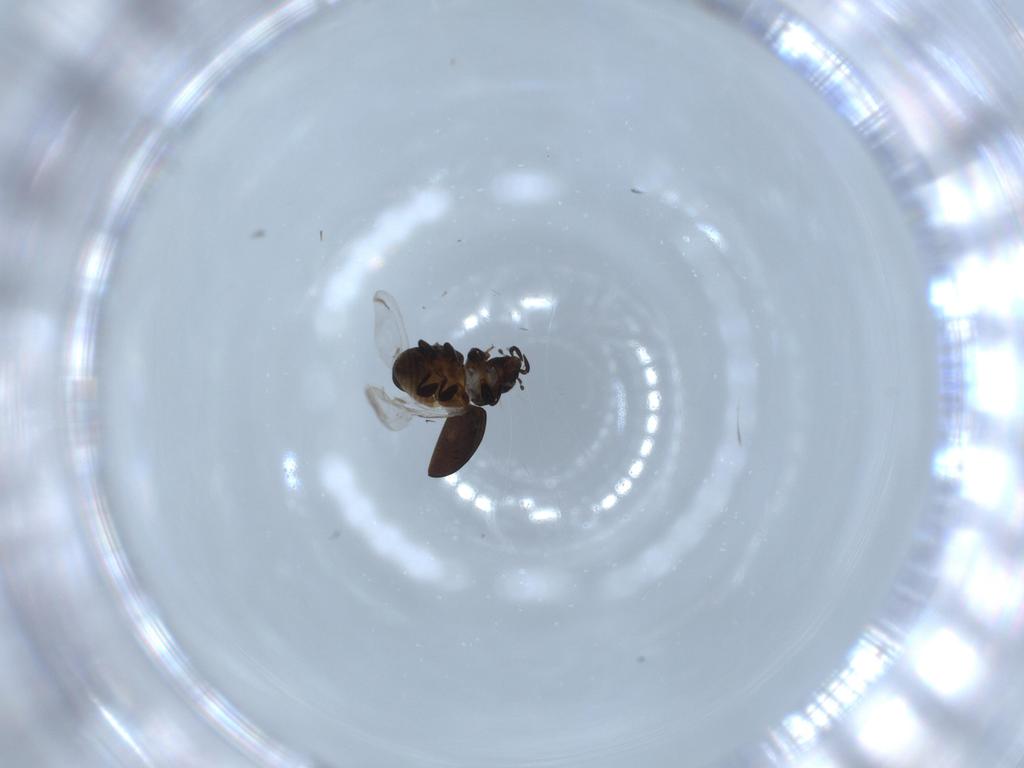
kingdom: Animalia
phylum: Arthropoda
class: Insecta
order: Coleoptera
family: Coccinellidae
